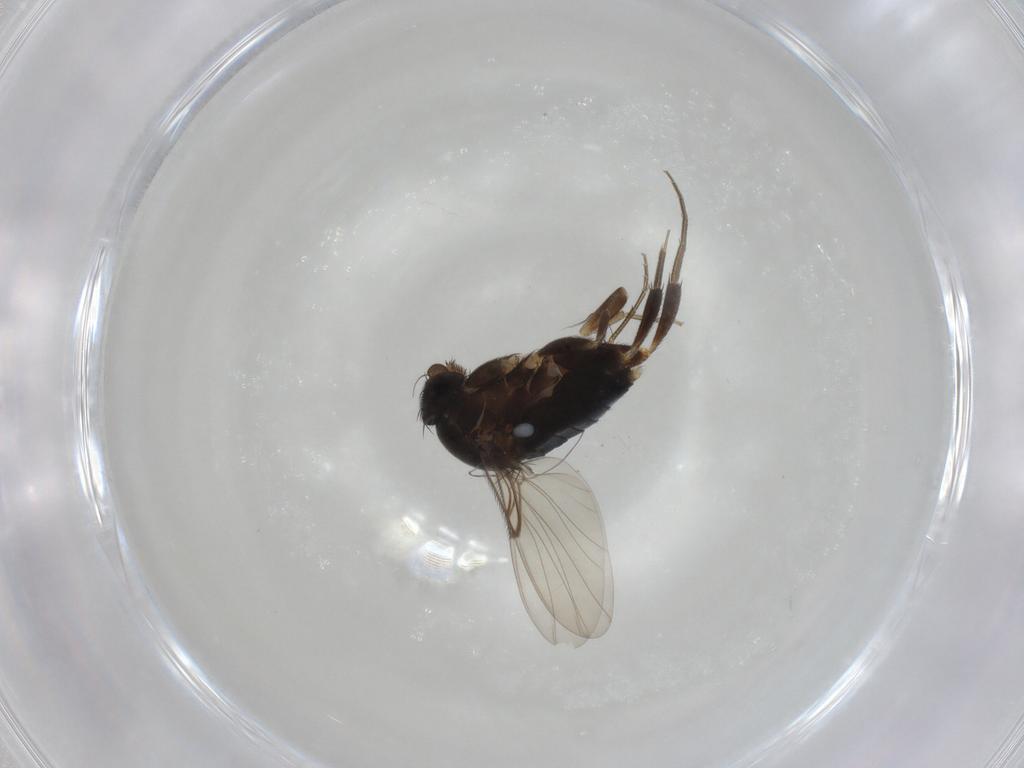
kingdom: Animalia
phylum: Arthropoda
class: Insecta
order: Diptera
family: Phoridae
